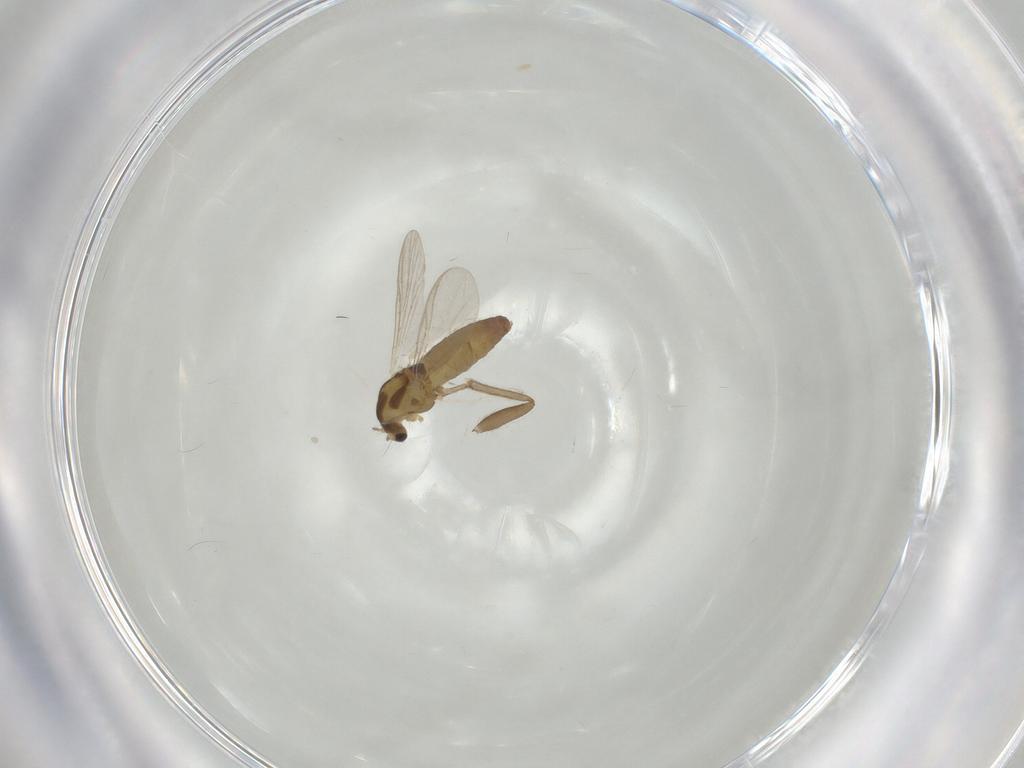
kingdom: Animalia
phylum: Arthropoda
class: Insecta
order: Diptera
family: Psychodidae
